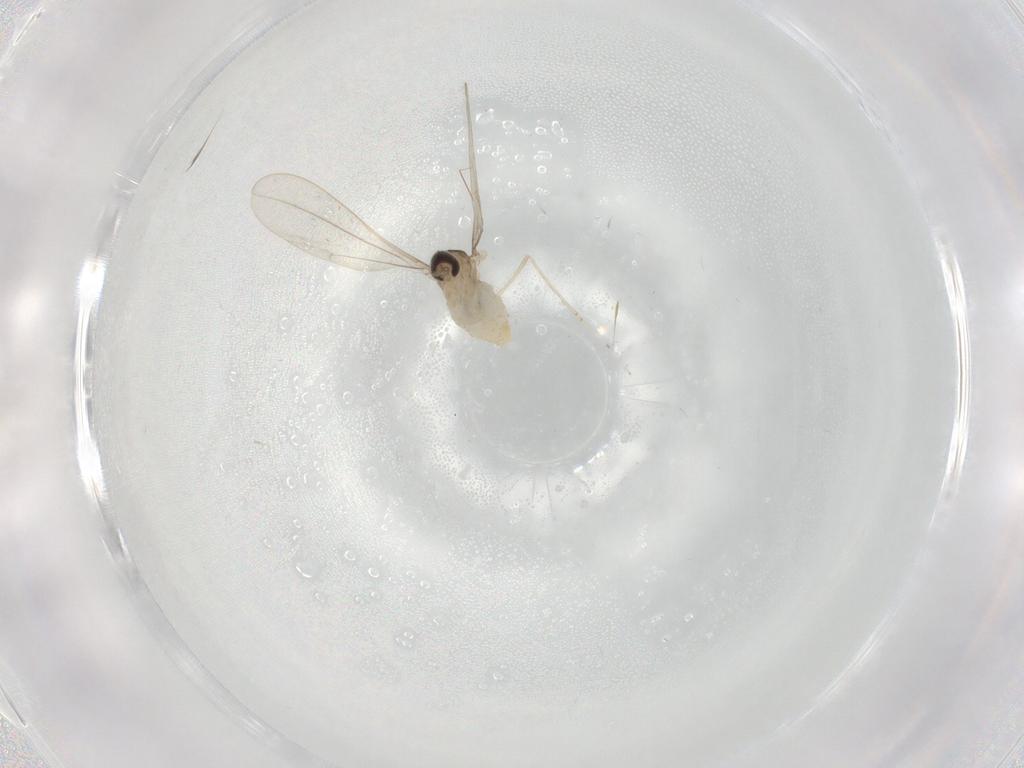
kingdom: Animalia
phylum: Arthropoda
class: Insecta
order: Diptera
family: Cecidomyiidae
